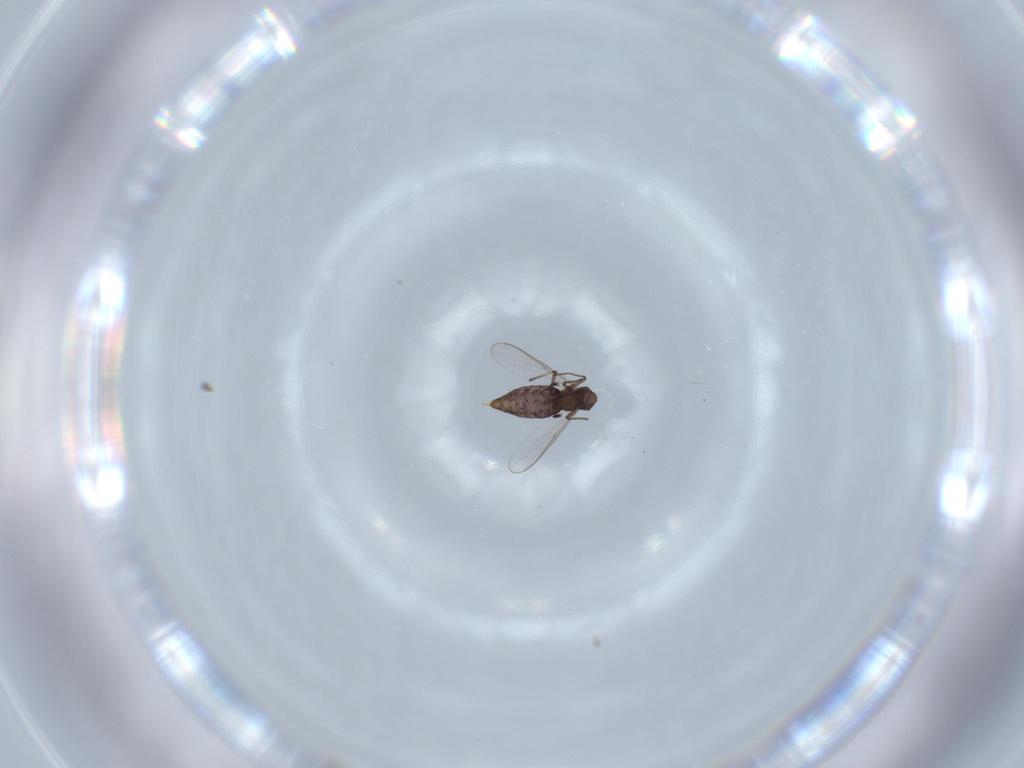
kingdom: Animalia
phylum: Arthropoda
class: Insecta
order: Diptera
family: Chironomidae
